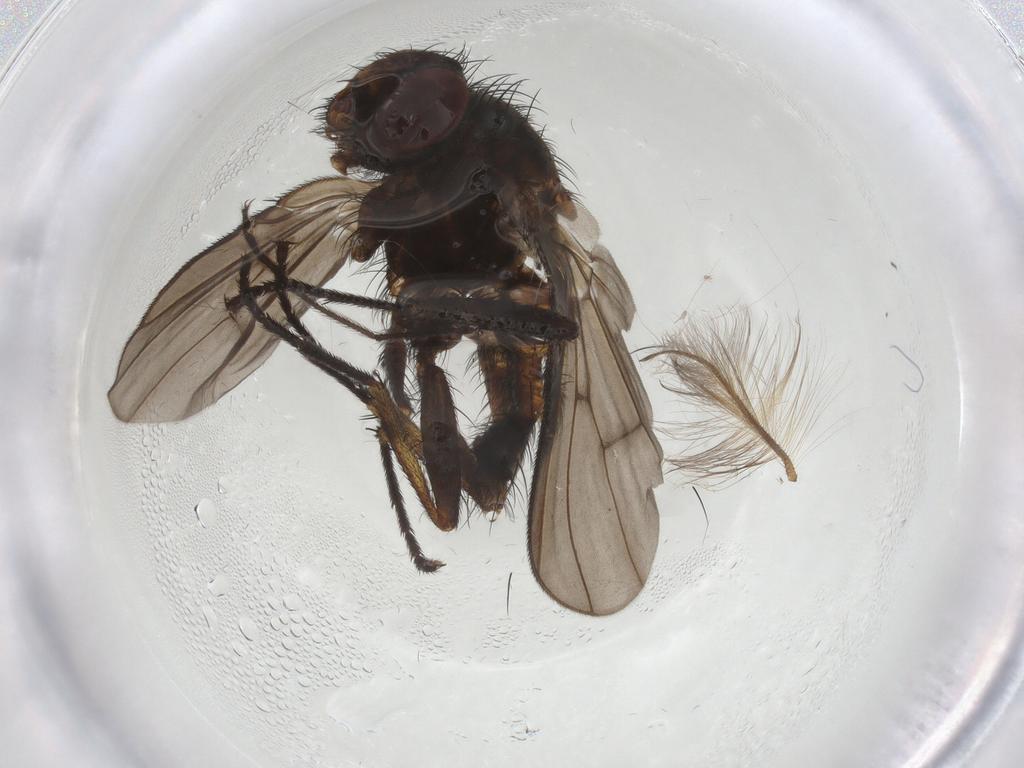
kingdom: Animalia
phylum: Arthropoda
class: Insecta
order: Diptera
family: Muscidae
